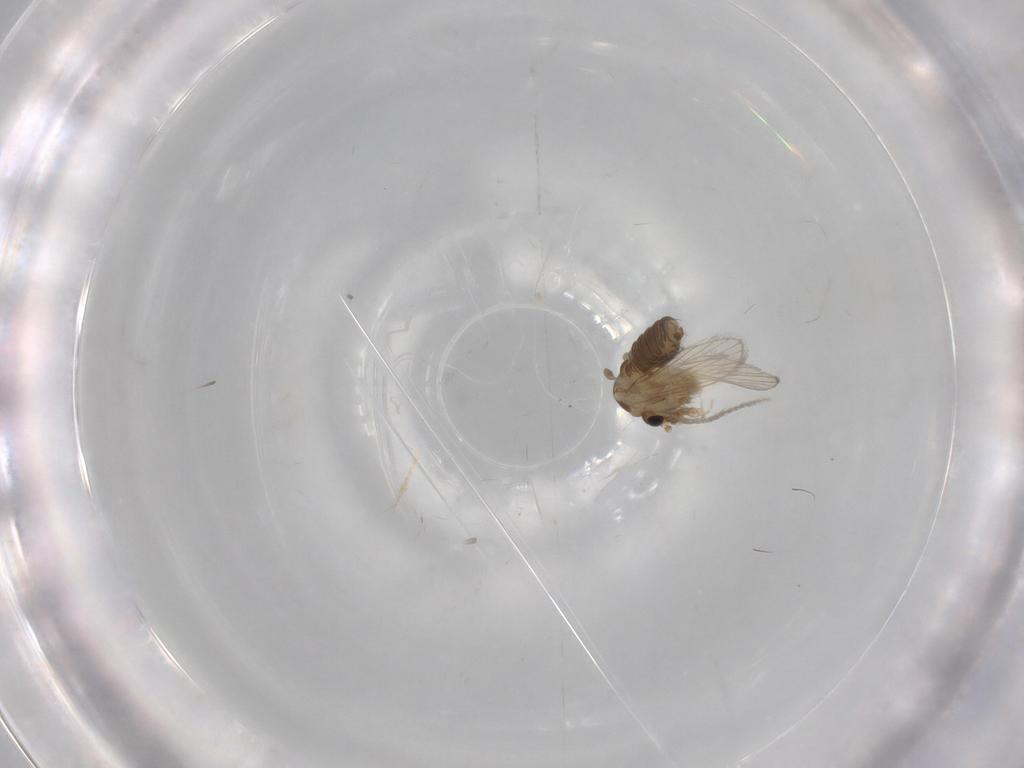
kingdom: Animalia
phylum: Arthropoda
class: Insecta
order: Diptera
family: Psychodidae
